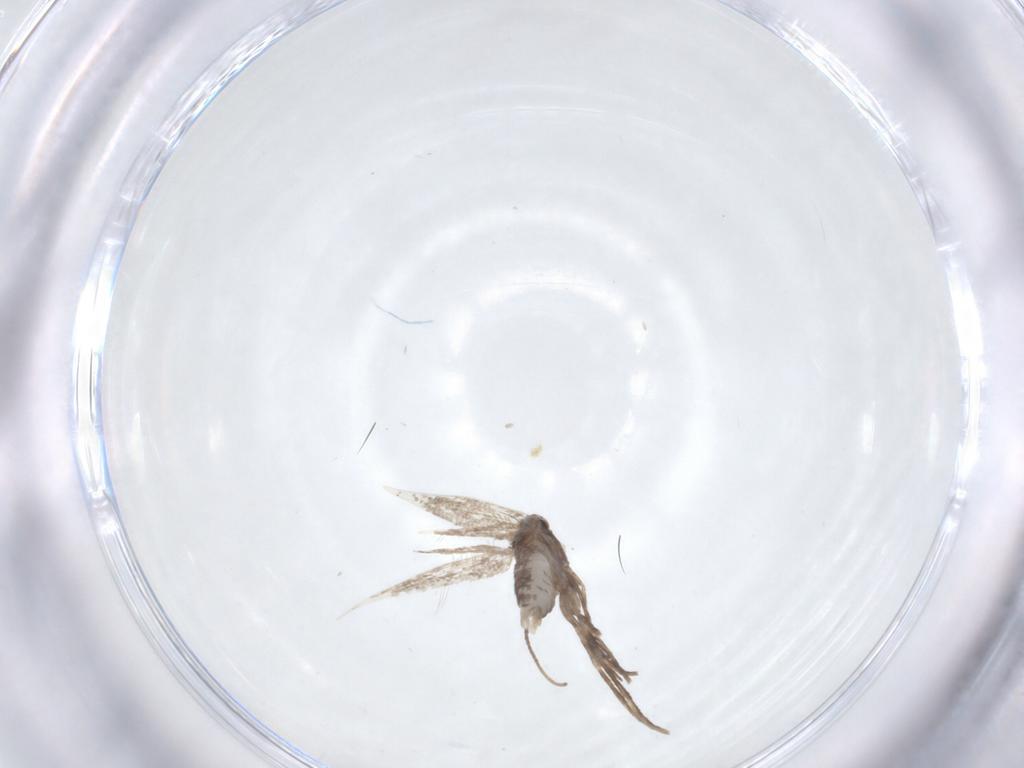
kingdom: Animalia
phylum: Arthropoda
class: Insecta
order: Lepidoptera
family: Gracillariidae
